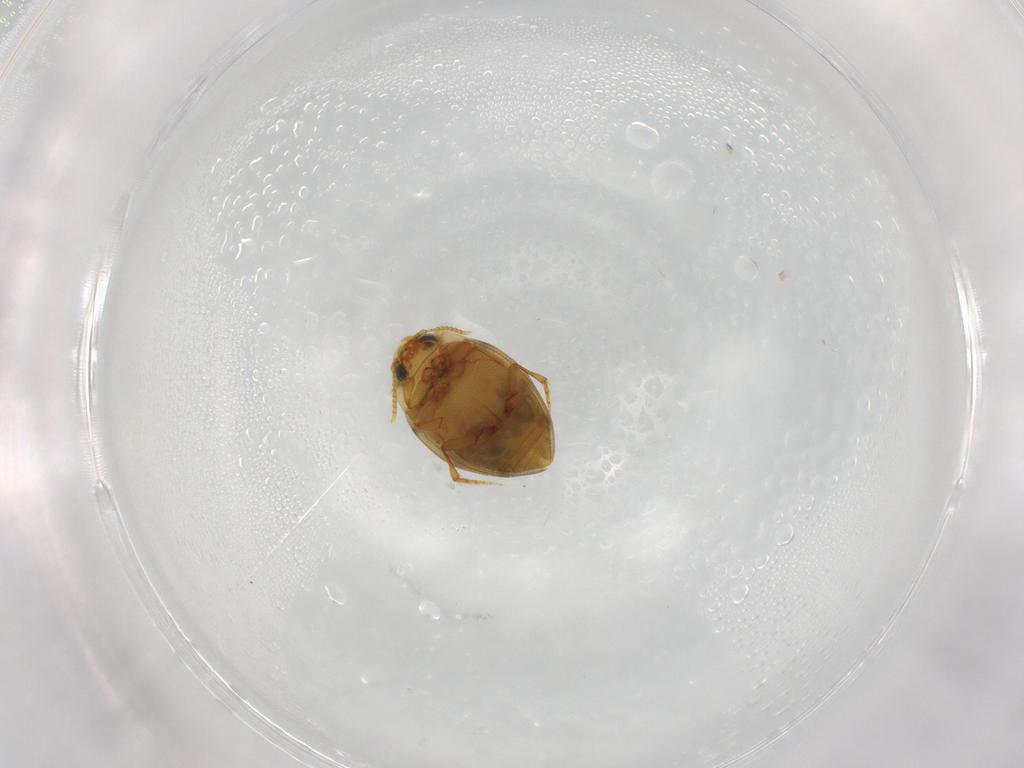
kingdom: Animalia
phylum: Arthropoda
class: Insecta
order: Coleoptera
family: Dytiscidae
